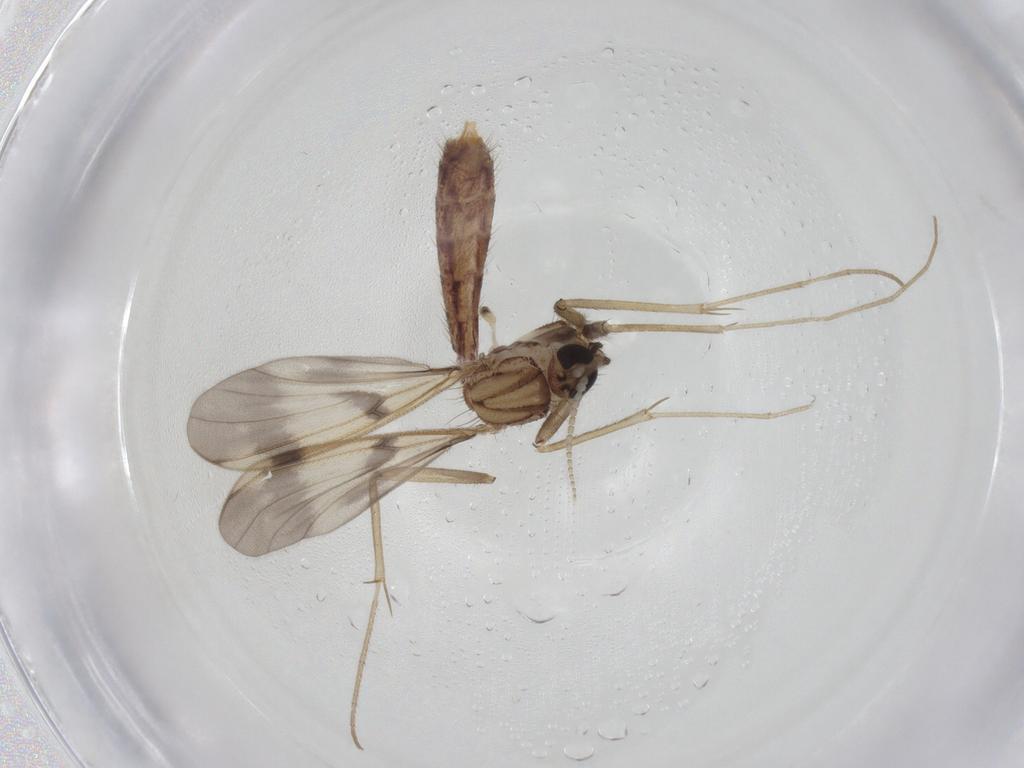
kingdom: Animalia
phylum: Arthropoda
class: Insecta
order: Diptera
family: Mycetophilidae
